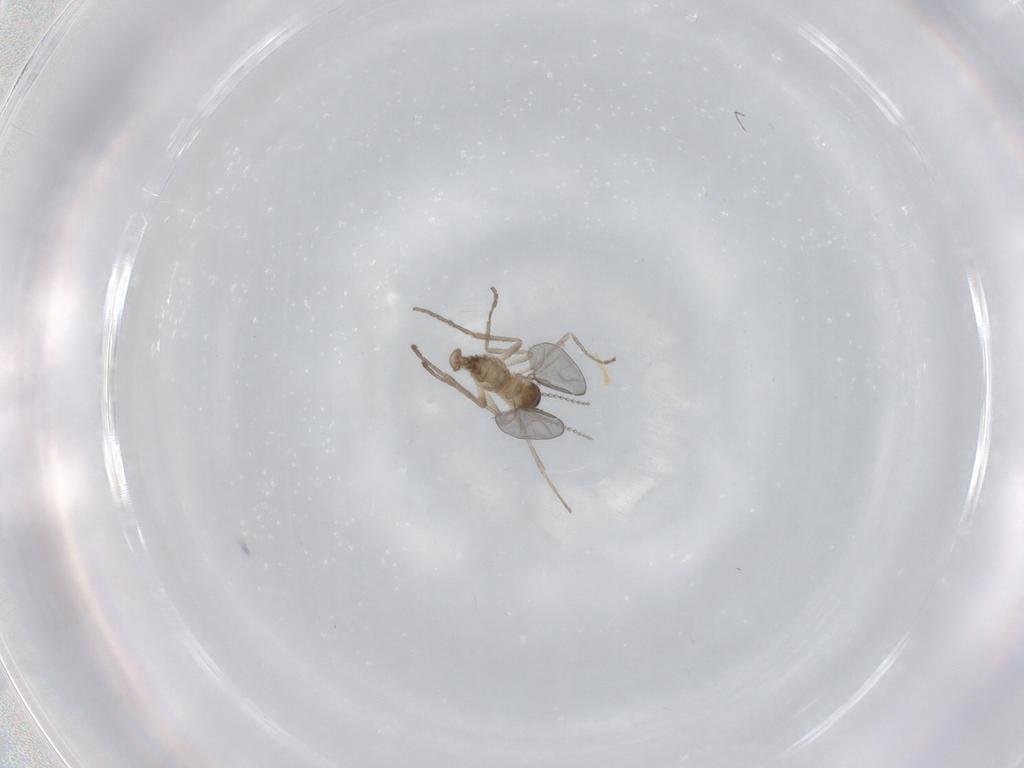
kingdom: Animalia
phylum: Arthropoda
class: Insecta
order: Diptera
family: Cecidomyiidae
